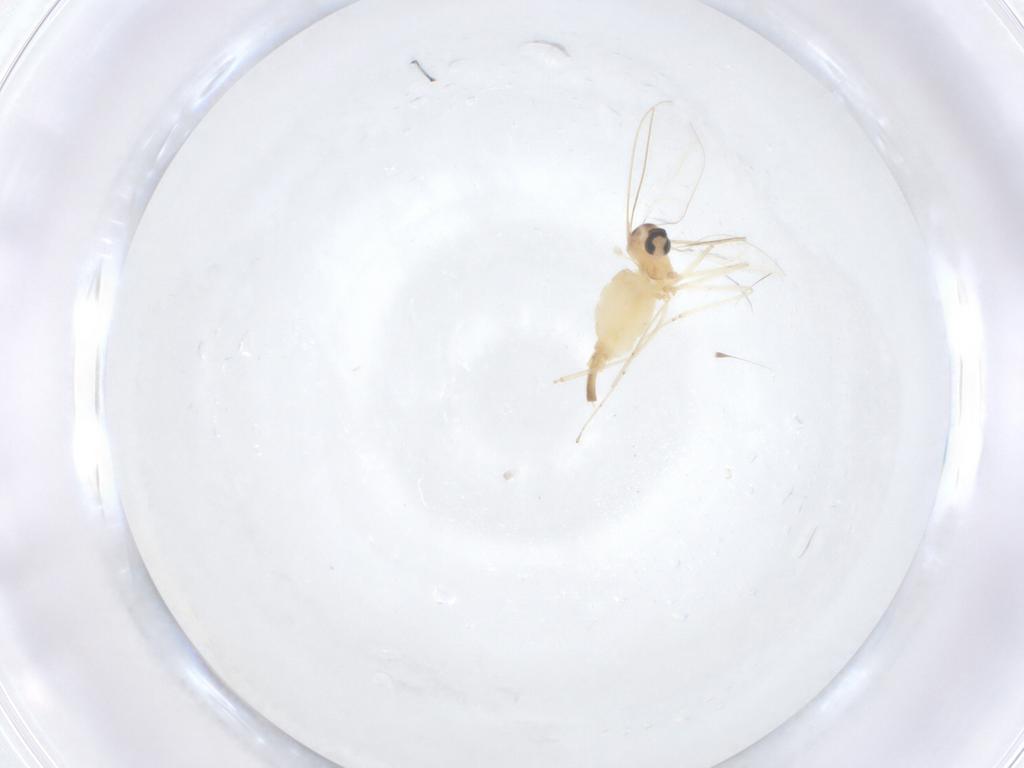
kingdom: Animalia
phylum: Arthropoda
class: Insecta
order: Diptera
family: Cecidomyiidae
